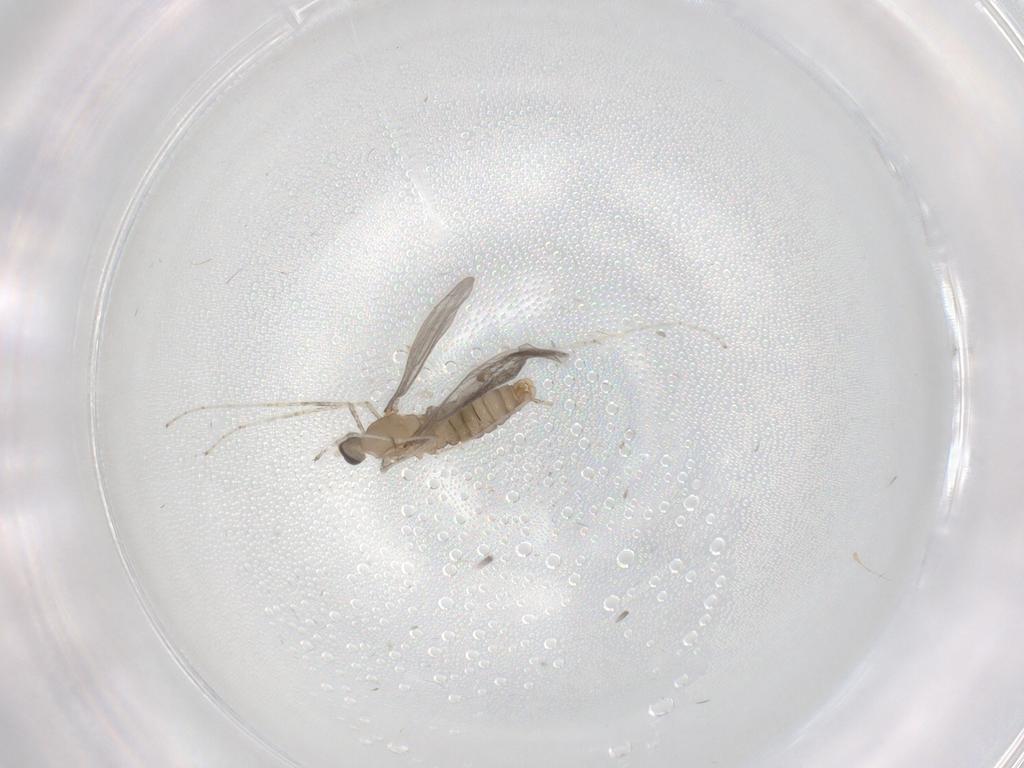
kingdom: Animalia
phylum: Arthropoda
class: Insecta
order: Diptera
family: Cecidomyiidae
